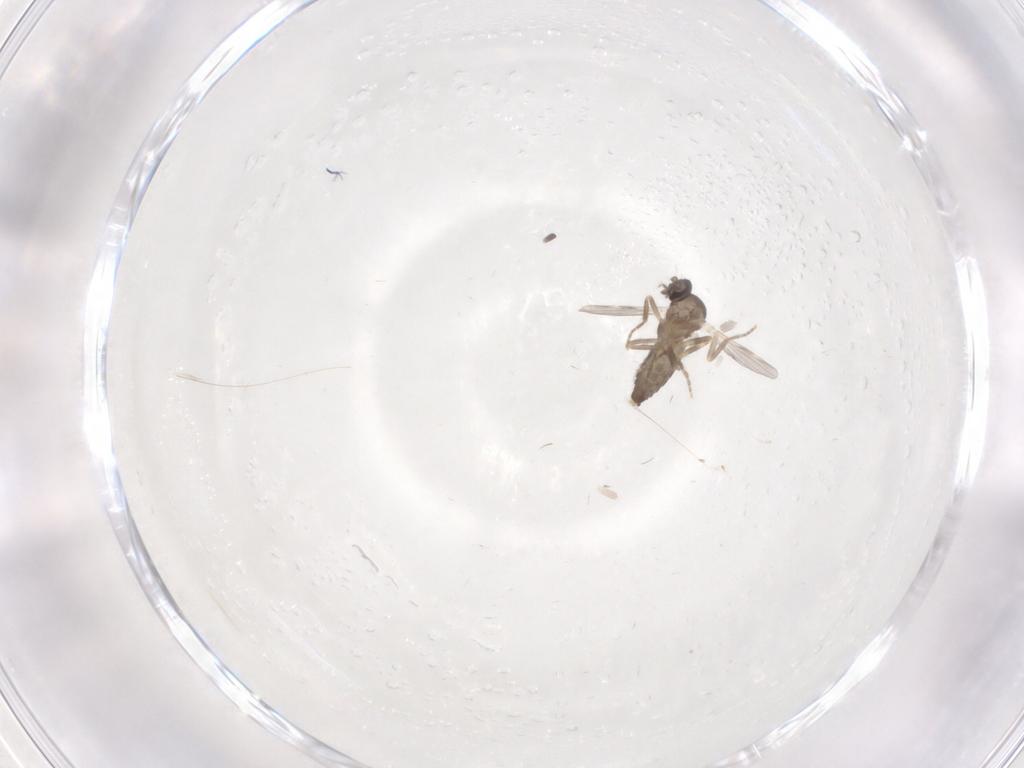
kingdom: Animalia
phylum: Arthropoda
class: Insecta
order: Diptera
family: Ceratopogonidae
